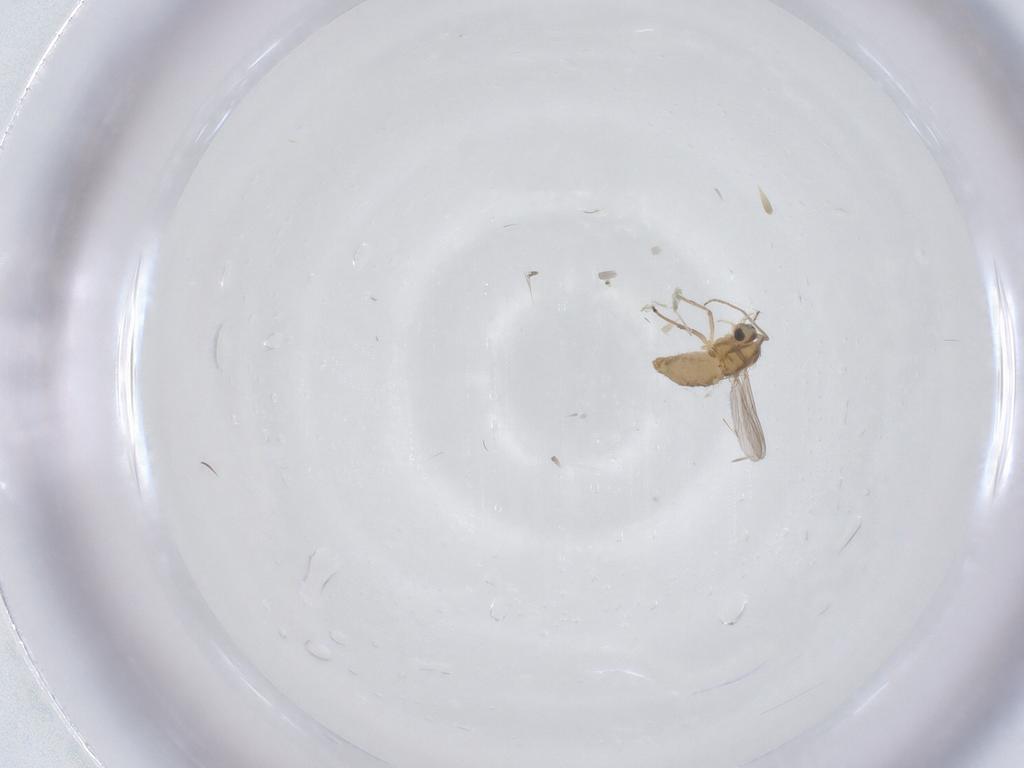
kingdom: Animalia
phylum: Arthropoda
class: Insecta
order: Diptera
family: Chironomidae
